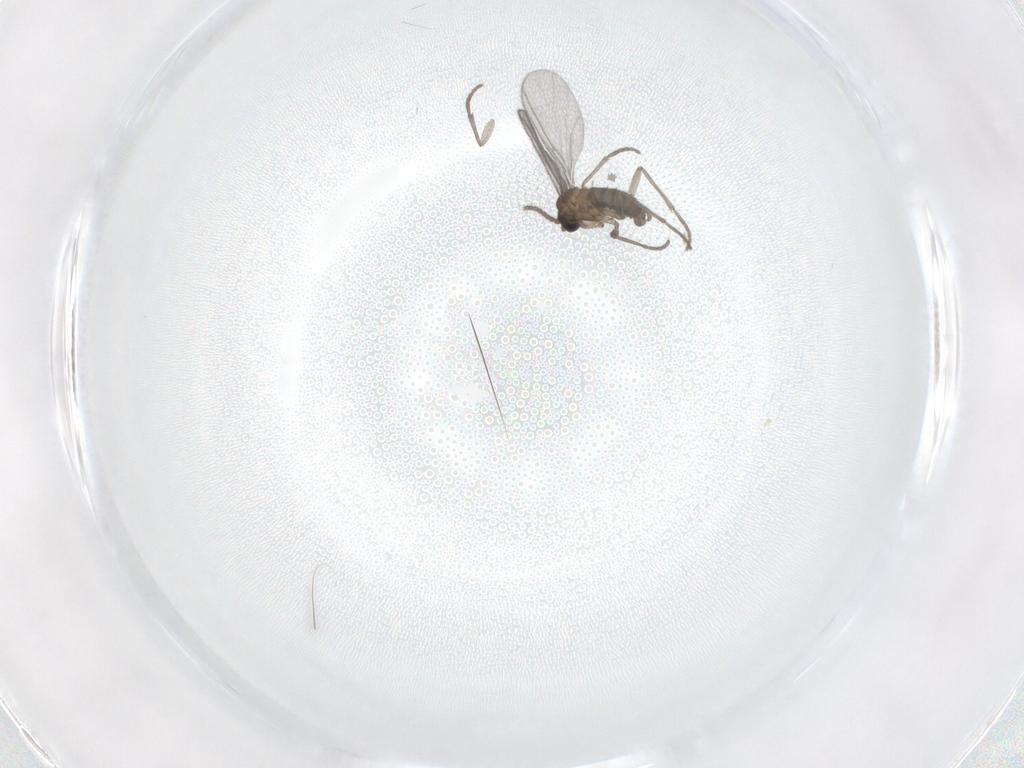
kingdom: Animalia
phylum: Arthropoda
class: Insecta
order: Diptera
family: Sciaridae
